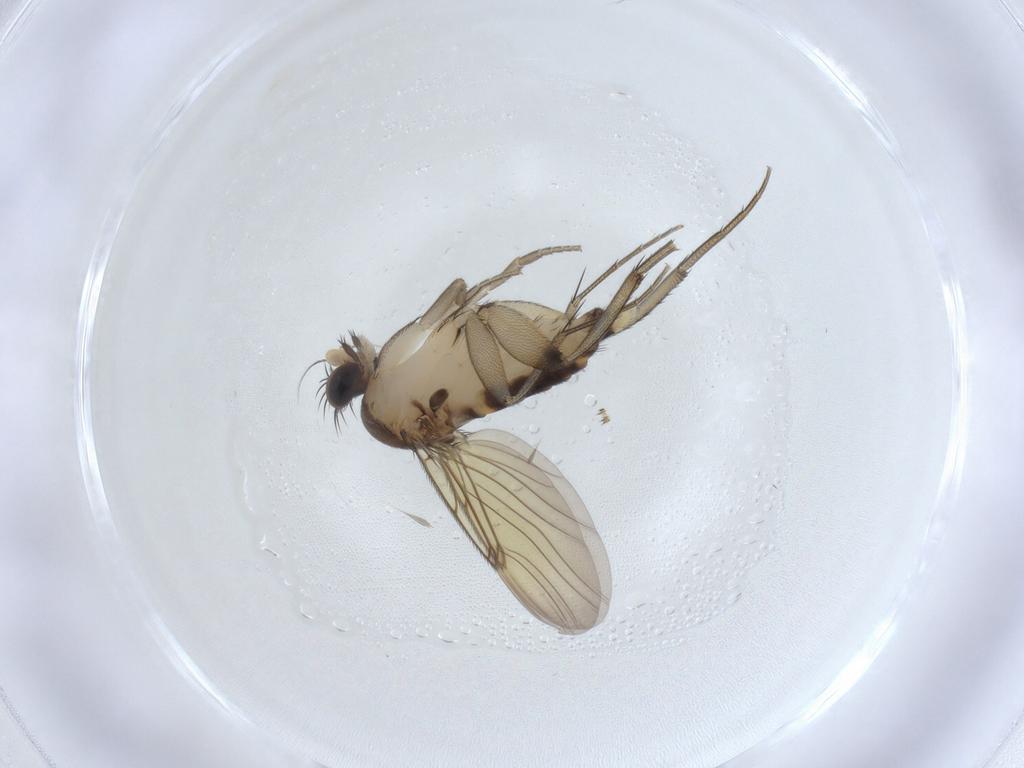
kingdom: Animalia
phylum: Arthropoda
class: Insecta
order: Diptera
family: Phoridae
